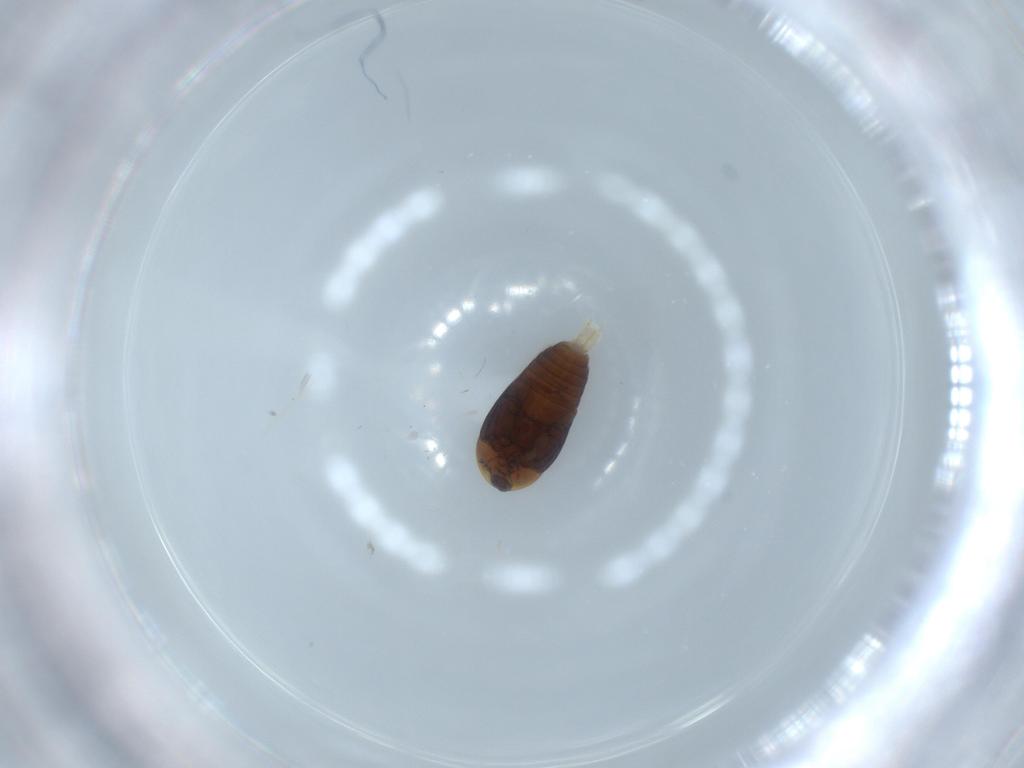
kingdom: Animalia
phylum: Arthropoda
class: Insecta
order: Coleoptera
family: Corylophidae
